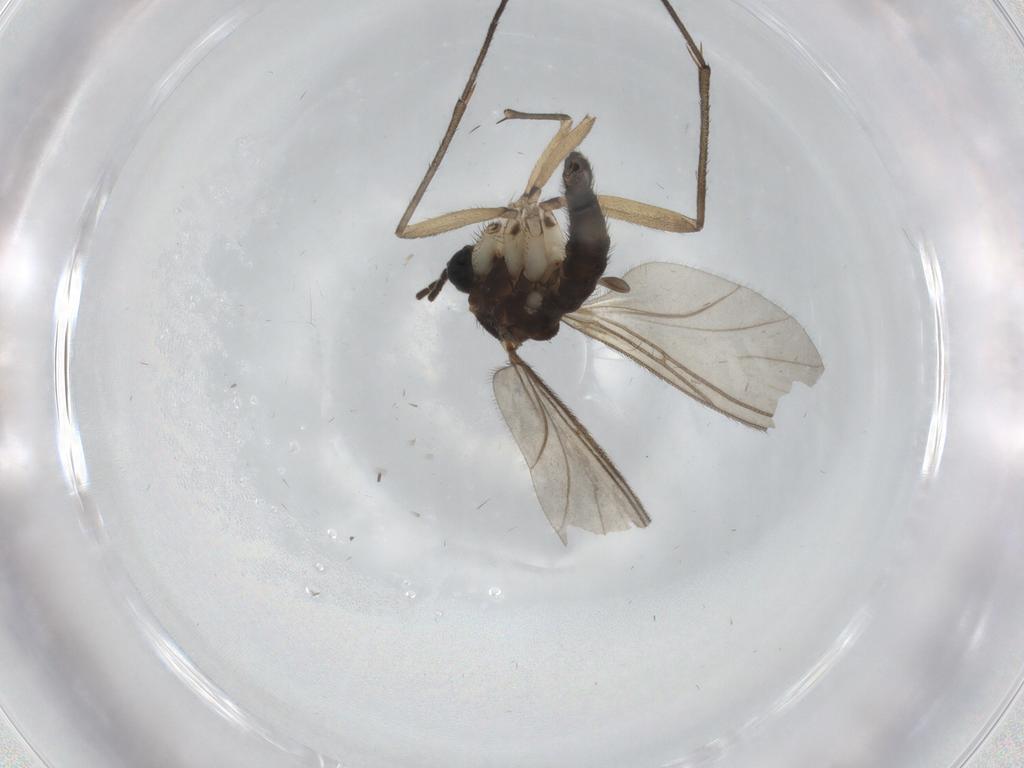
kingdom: Animalia
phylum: Arthropoda
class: Insecta
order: Diptera
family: Sciaridae
